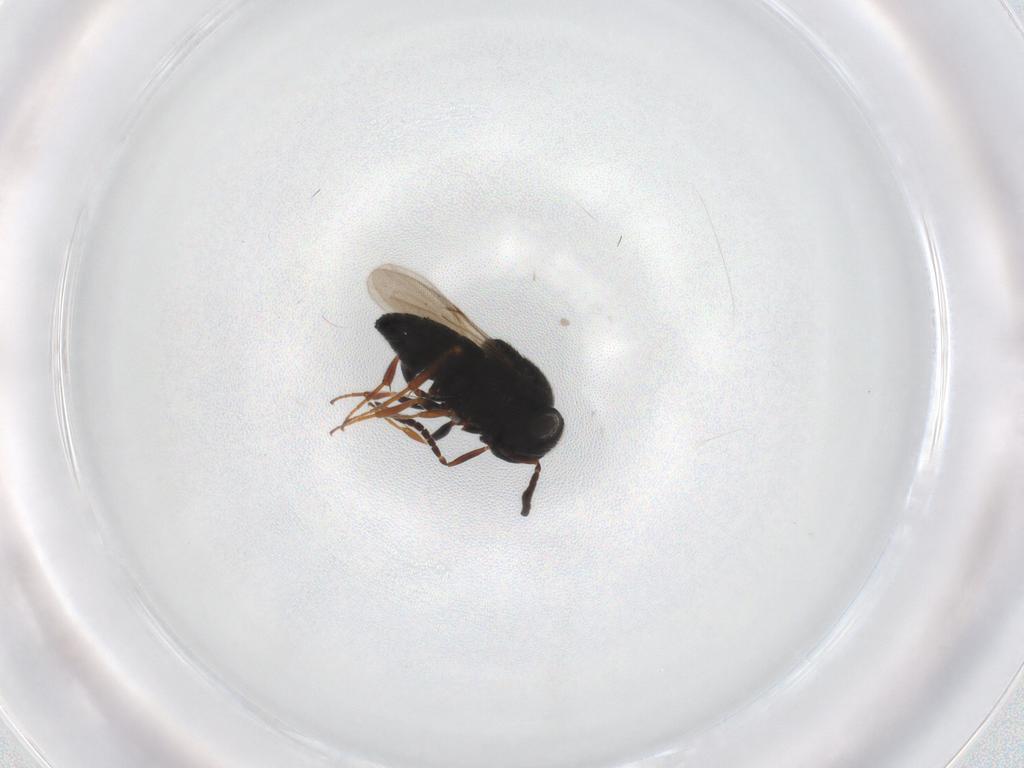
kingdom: Animalia
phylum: Arthropoda
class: Insecta
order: Hymenoptera
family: Scelionidae
